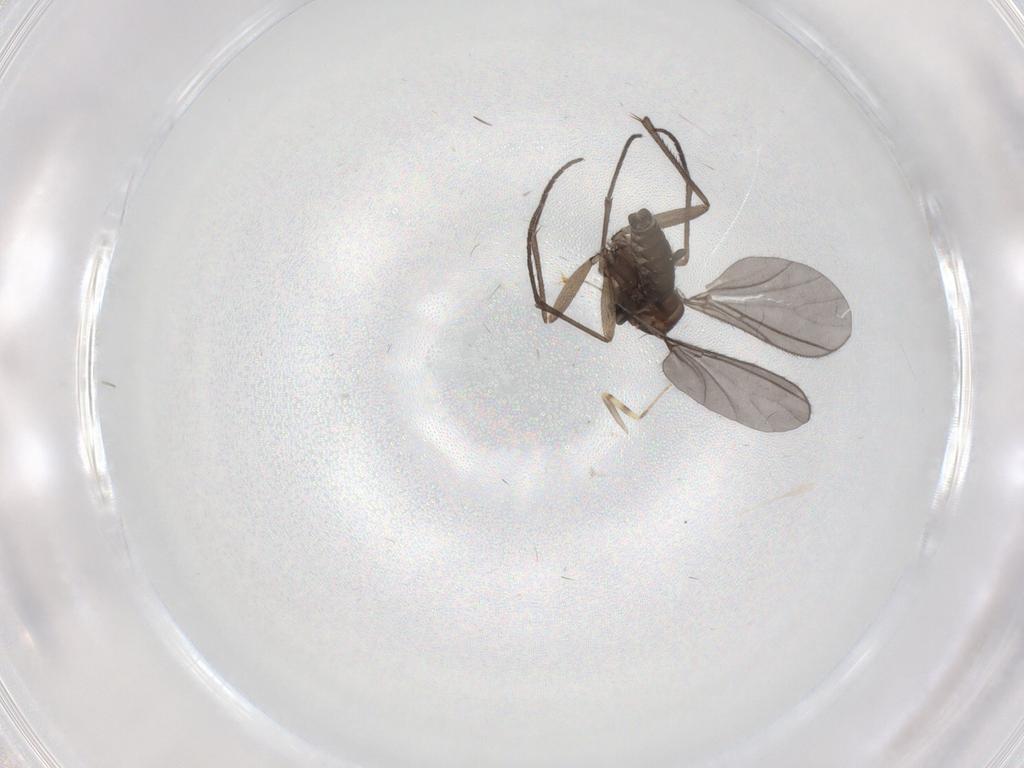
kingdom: Animalia
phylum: Arthropoda
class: Insecta
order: Diptera
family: Sciaridae
